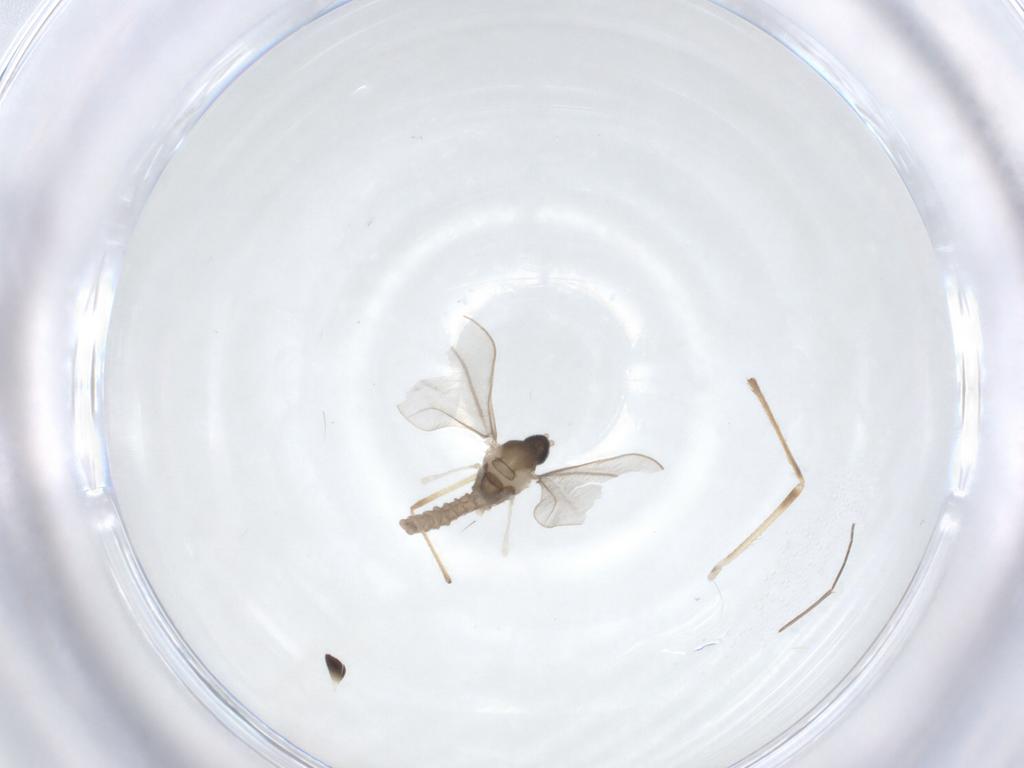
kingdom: Animalia
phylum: Arthropoda
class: Insecta
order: Diptera
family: Cecidomyiidae
